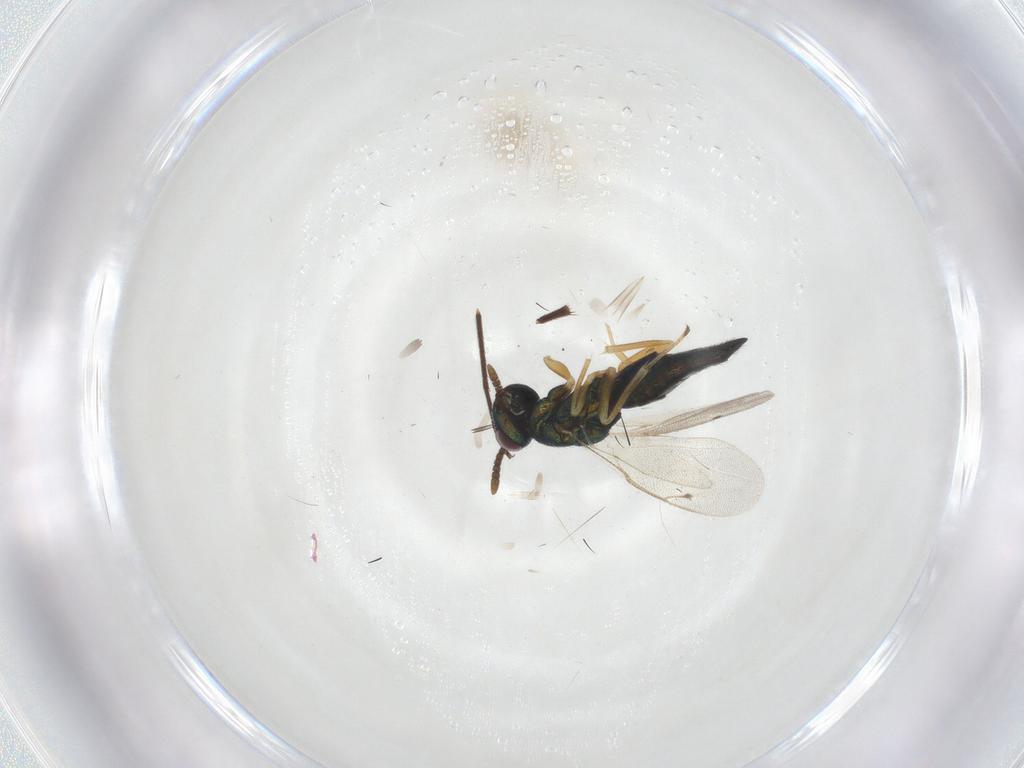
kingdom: Animalia
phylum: Arthropoda
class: Insecta
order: Hymenoptera
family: Pteromalidae
